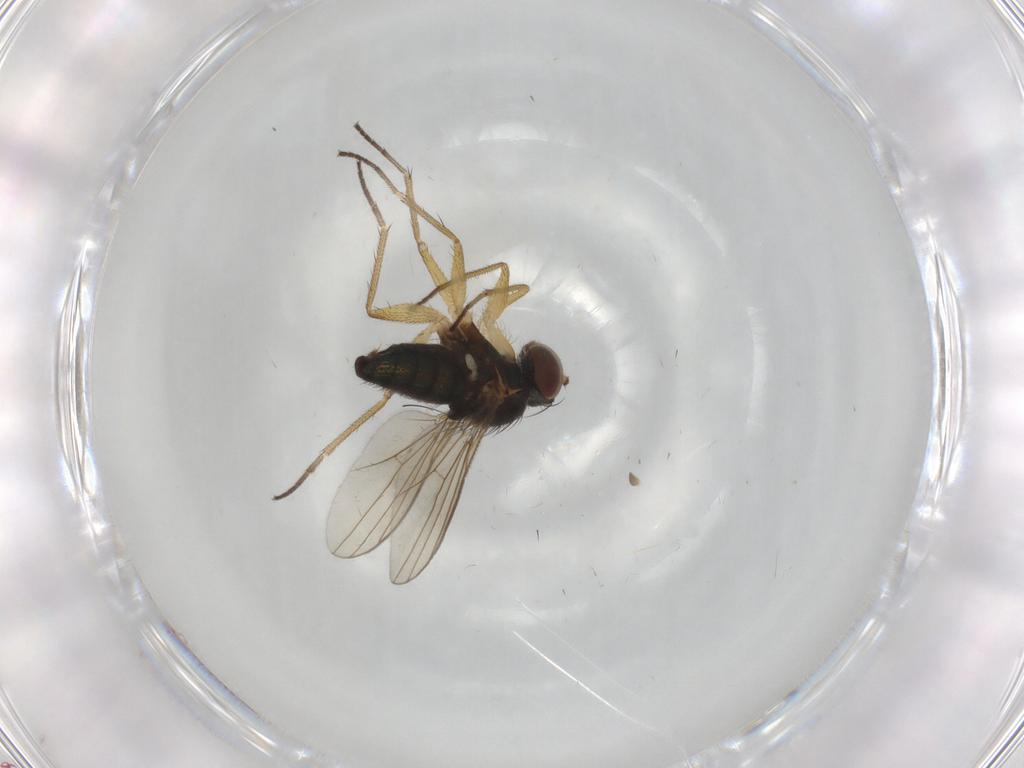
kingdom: Animalia
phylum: Arthropoda
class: Insecta
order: Diptera
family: Dolichopodidae
